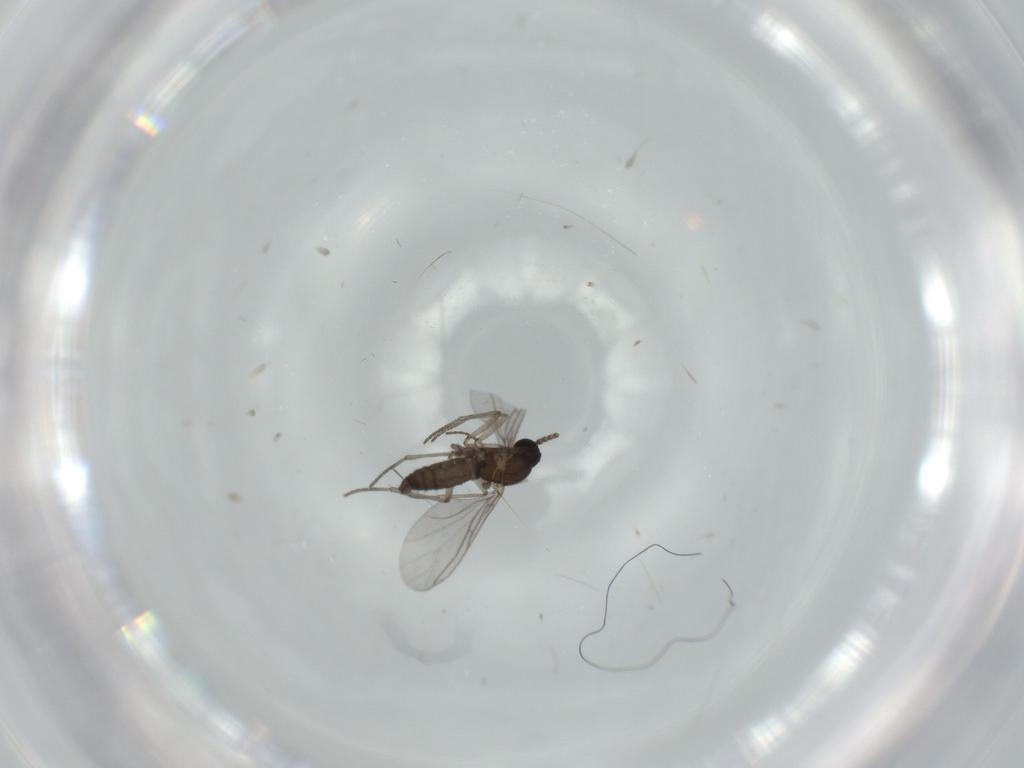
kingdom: Animalia
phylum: Arthropoda
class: Insecta
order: Diptera
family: Cecidomyiidae
